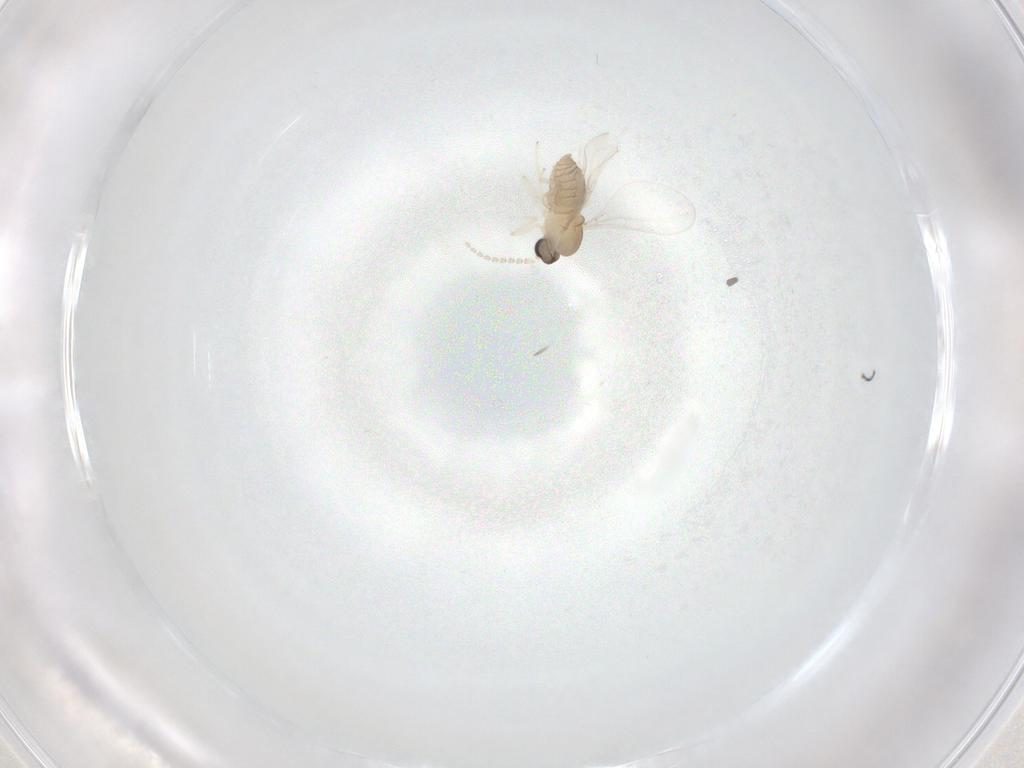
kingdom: Animalia
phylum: Arthropoda
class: Insecta
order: Diptera
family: Cecidomyiidae
